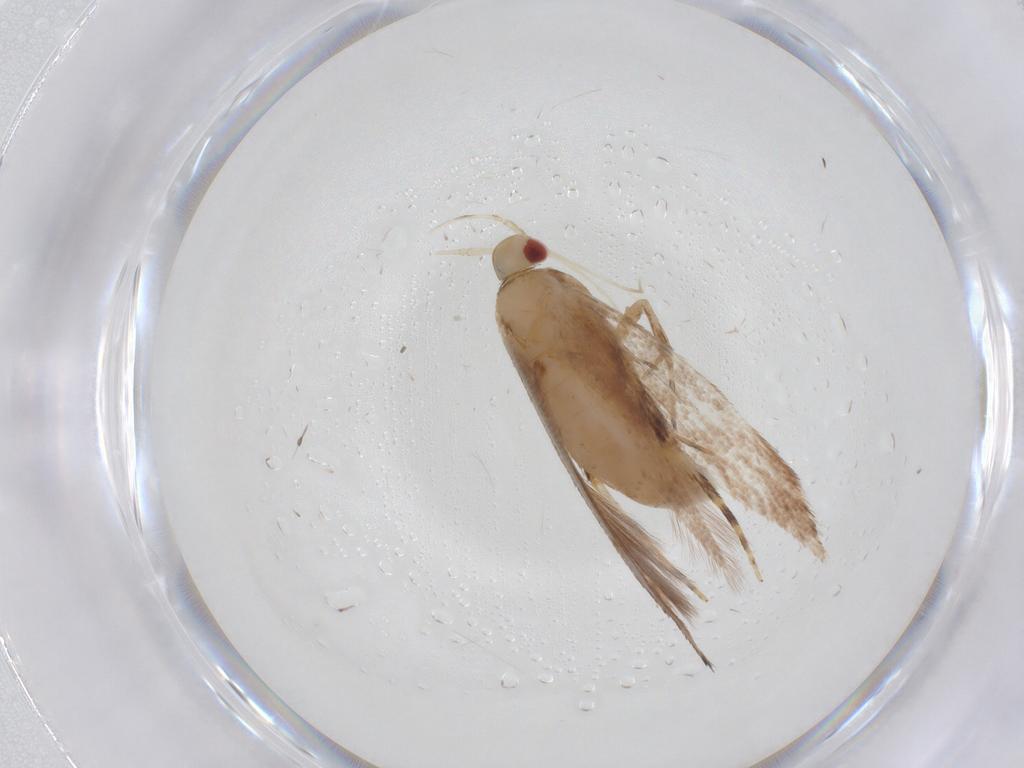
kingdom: Animalia
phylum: Arthropoda
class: Insecta
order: Lepidoptera
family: Cosmopterigidae
